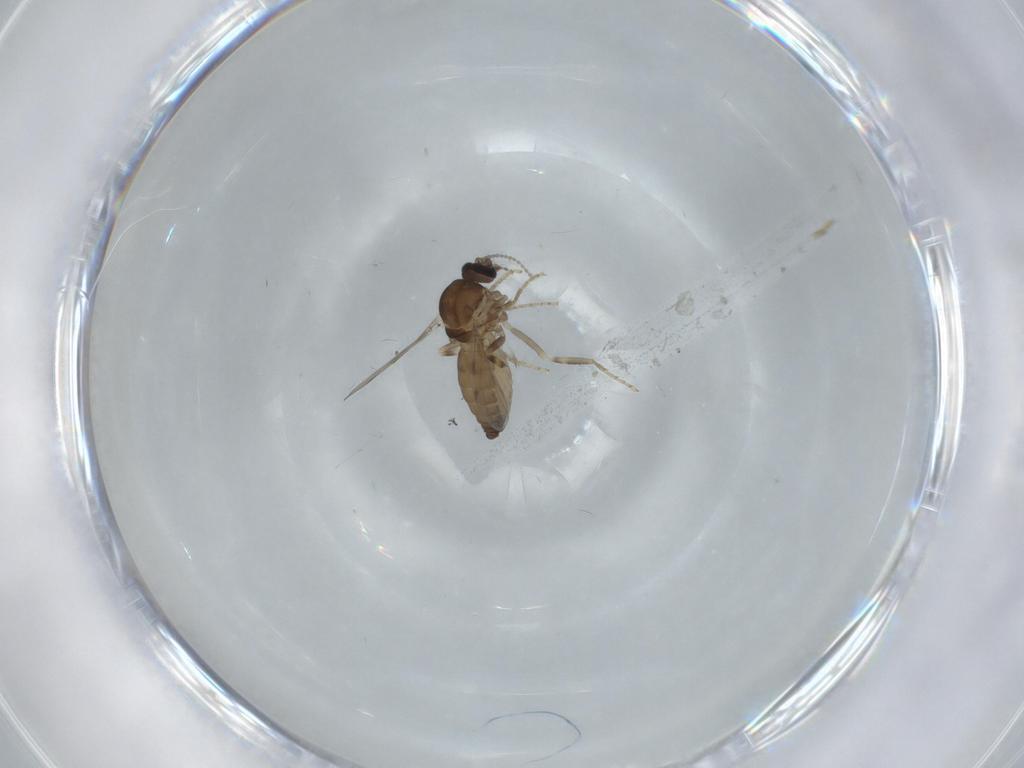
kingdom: Animalia
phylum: Arthropoda
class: Insecta
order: Diptera
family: Ceratopogonidae
